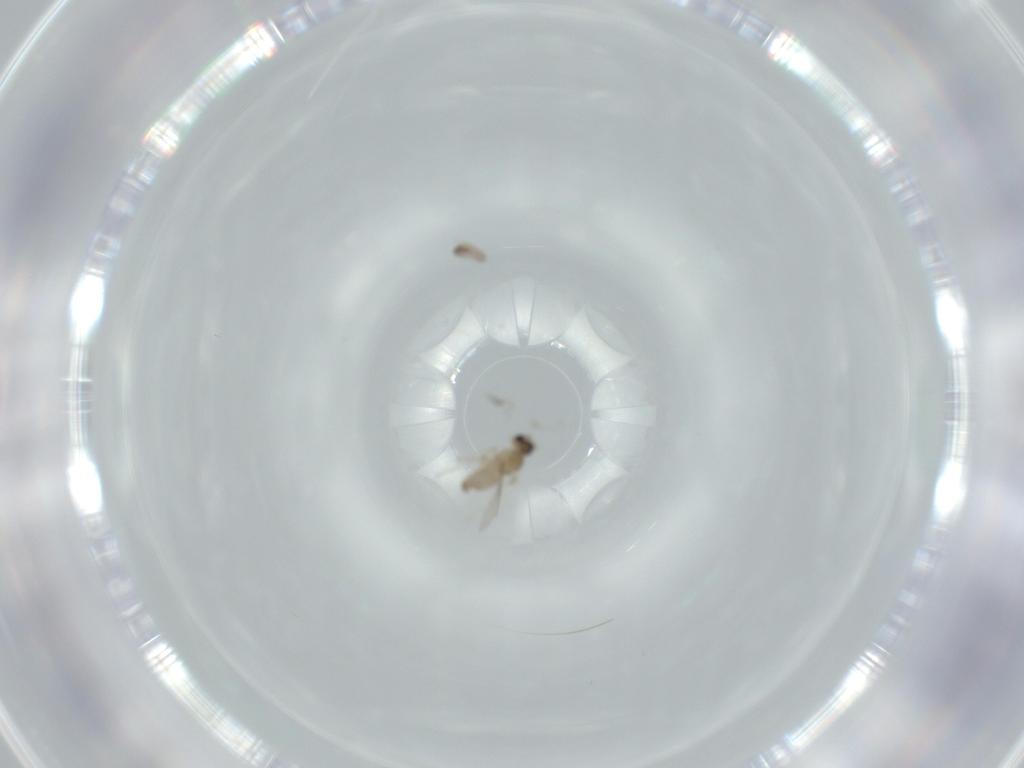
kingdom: Animalia
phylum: Arthropoda
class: Insecta
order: Diptera
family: Cecidomyiidae
